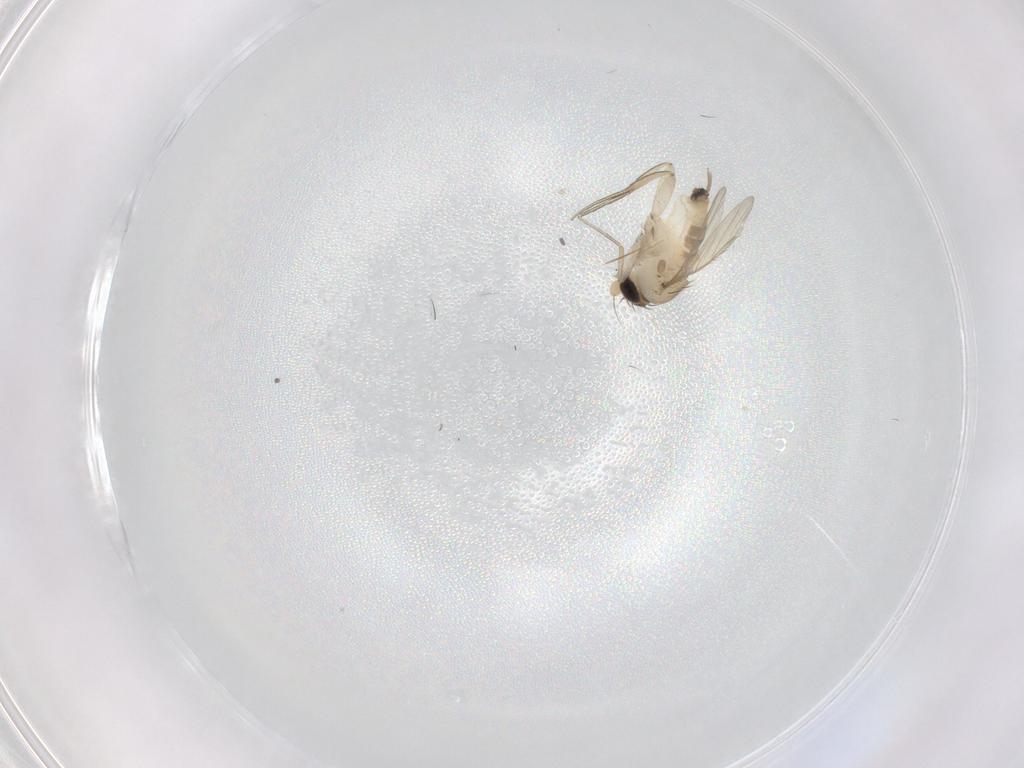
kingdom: Animalia
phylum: Arthropoda
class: Insecta
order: Diptera
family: Phoridae
